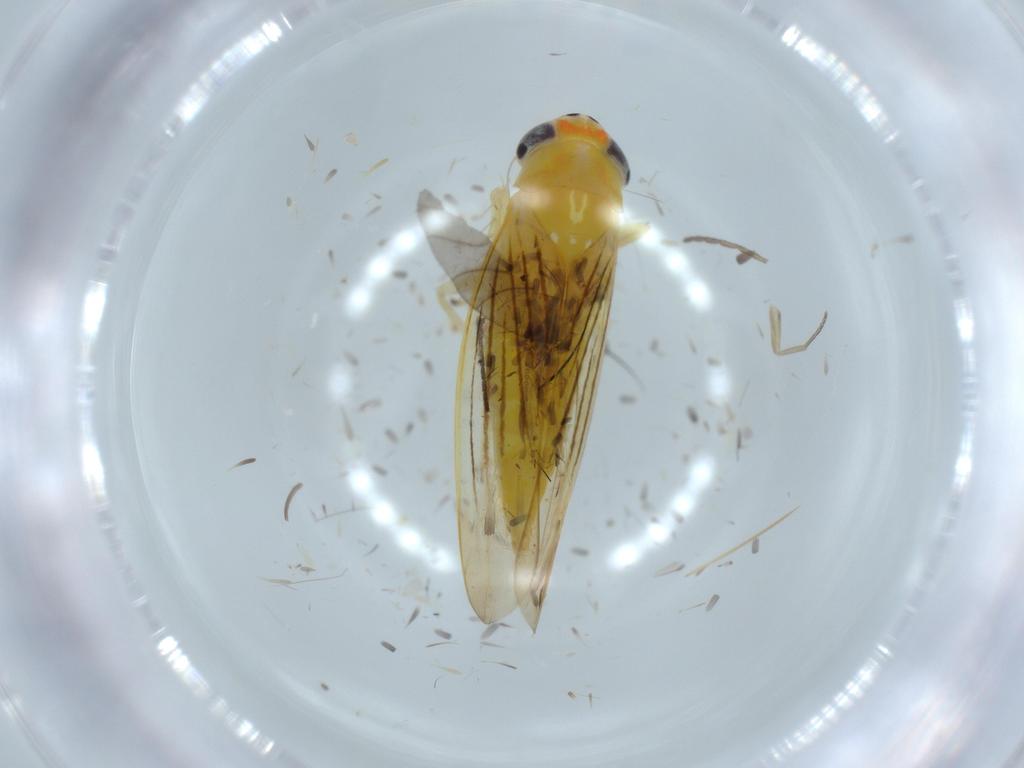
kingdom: Animalia
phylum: Arthropoda
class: Insecta
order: Hemiptera
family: Cicadellidae
